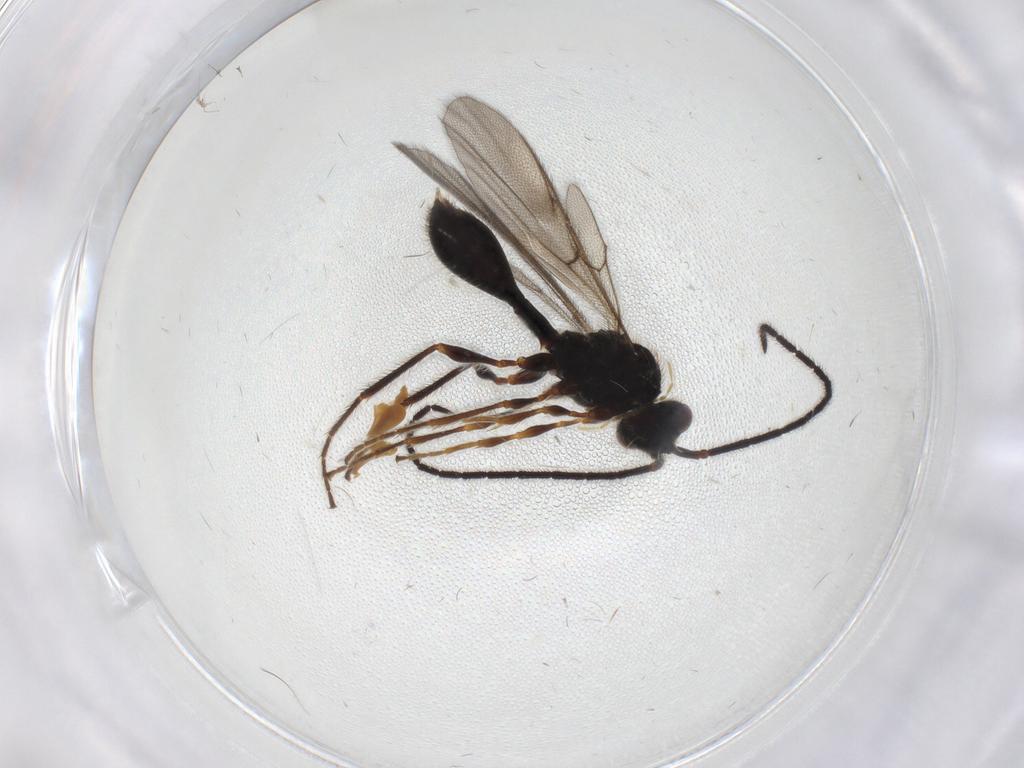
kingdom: Animalia
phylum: Arthropoda
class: Insecta
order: Hymenoptera
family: Diapriidae
